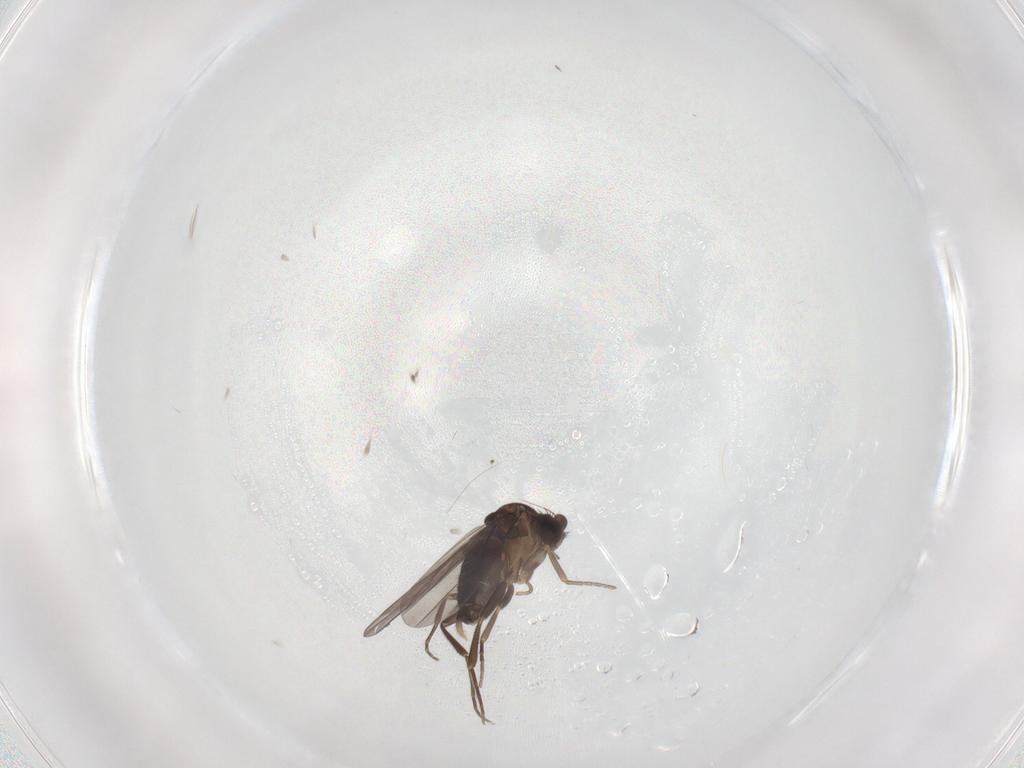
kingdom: Animalia
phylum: Arthropoda
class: Insecta
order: Diptera
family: Phoridae
